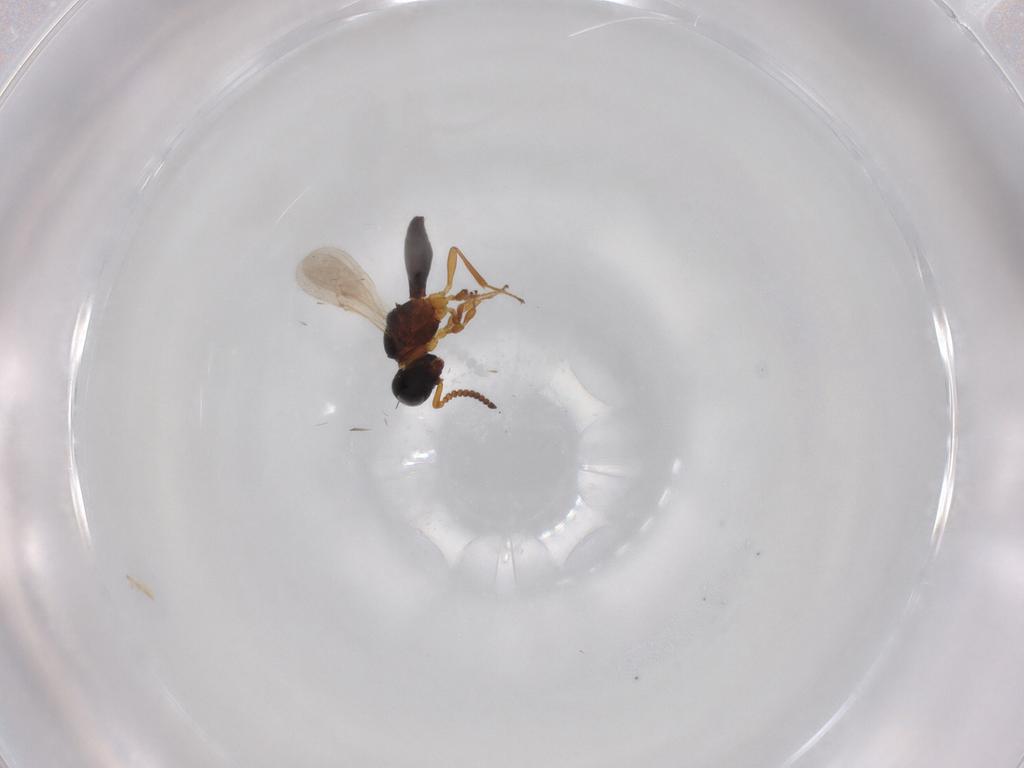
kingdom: Animalia
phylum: Arthropoda
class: Insecta
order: Hymenoptera
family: Scelionidae
